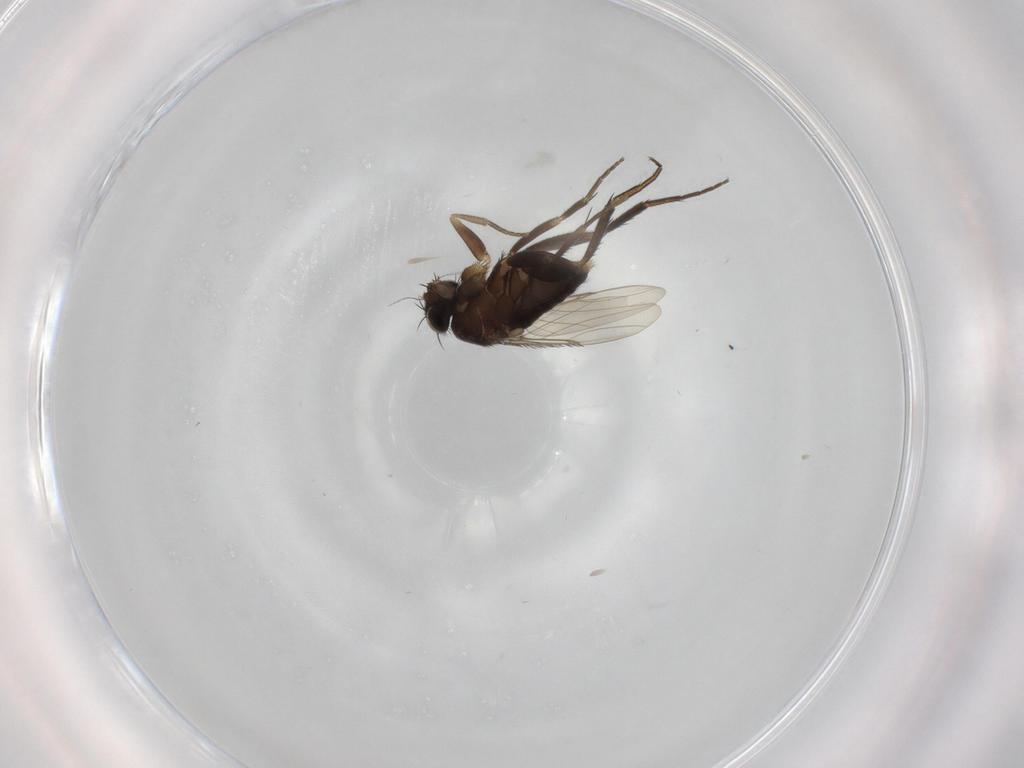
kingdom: Animalia
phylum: Arthropoda
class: Insecta
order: Diptera
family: Phoridae
